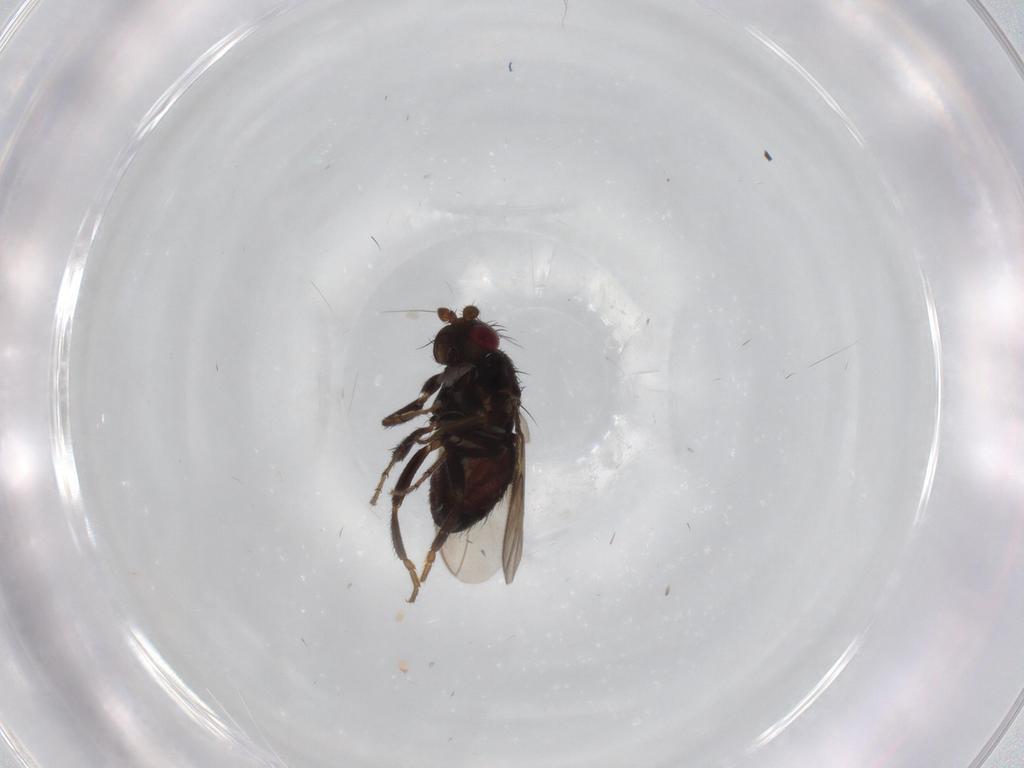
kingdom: Animalia
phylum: Arthropoda
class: Insecta
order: Diptera
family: Sphaeroceridae
